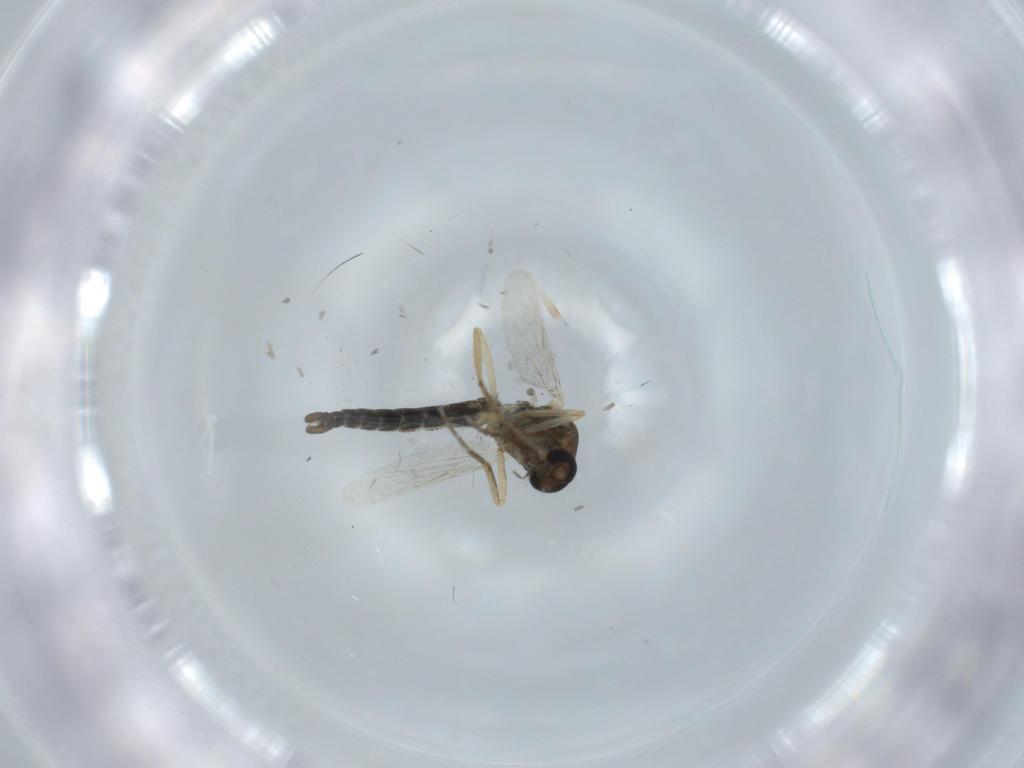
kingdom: Animalia
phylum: Arthropoda
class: Insecta
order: Diptera
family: Ceratopogonidae
